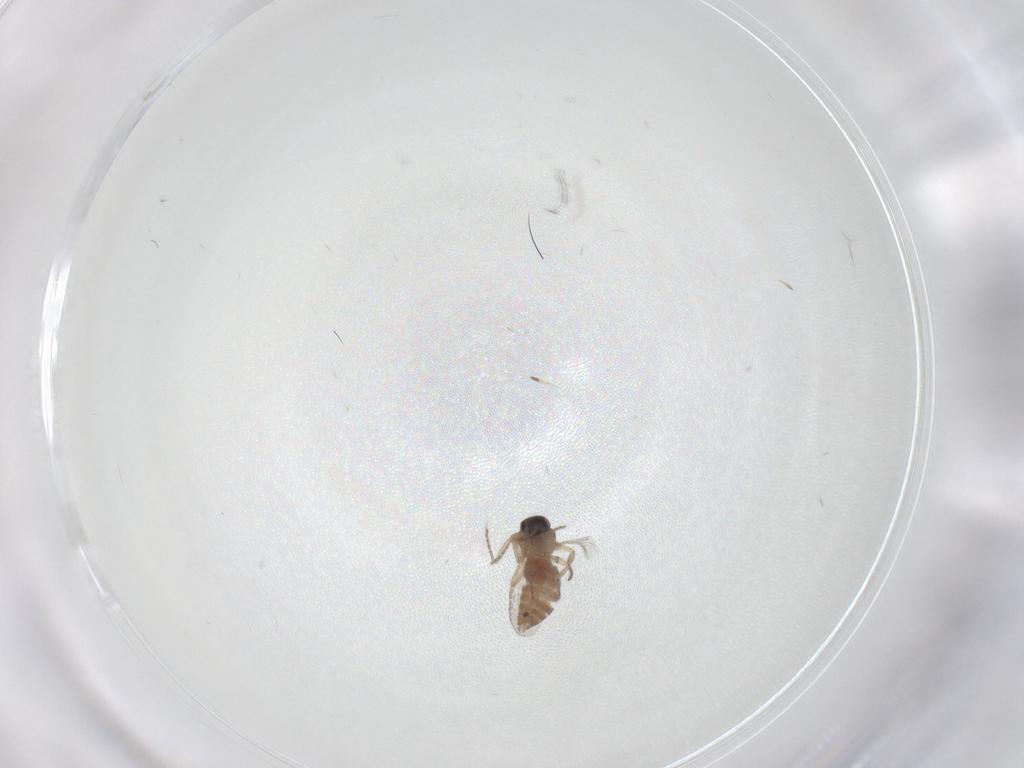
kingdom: Animalia
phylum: Arthropoda
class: Insecta
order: Diptera
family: Ceratopogonidae
